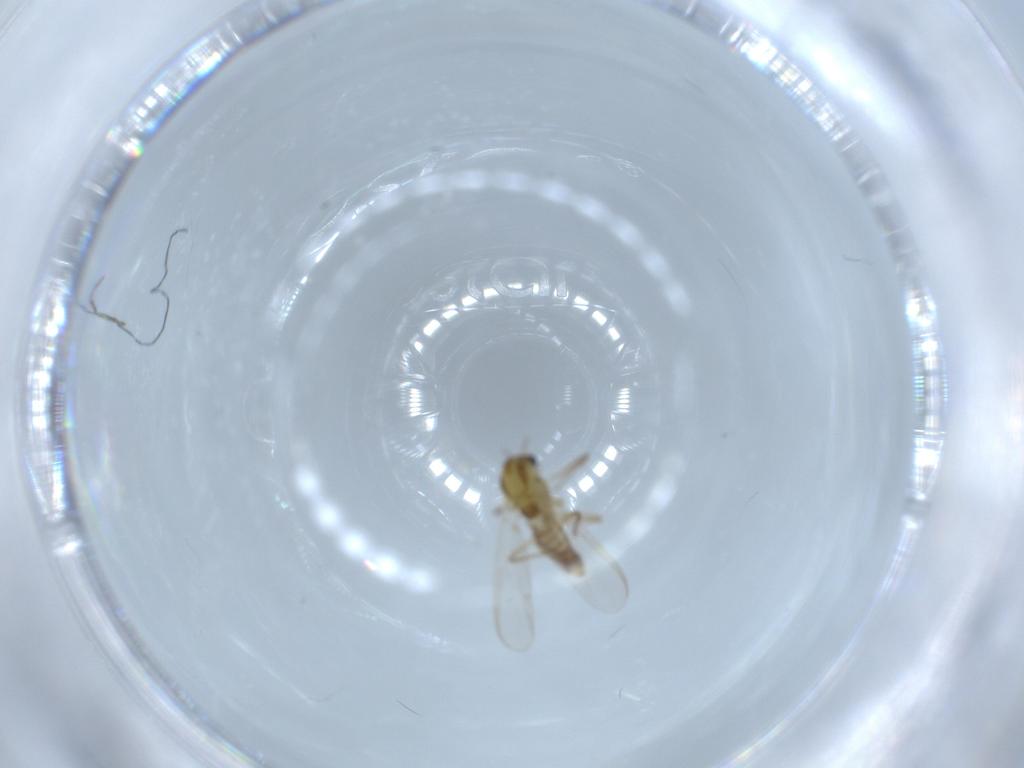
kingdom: Animalia
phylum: Arthropoda
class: Insecta
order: Diptera
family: Chironomidae
